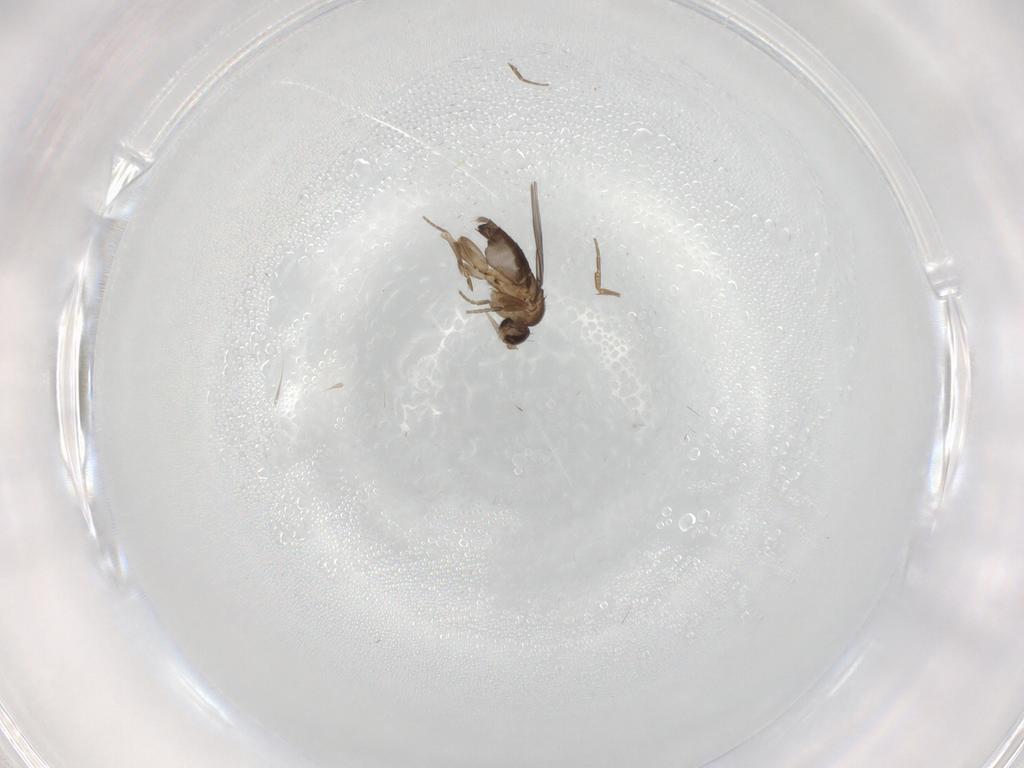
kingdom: Animalia
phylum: Arthropoda
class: Insecta
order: Diptera
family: Phoridae
